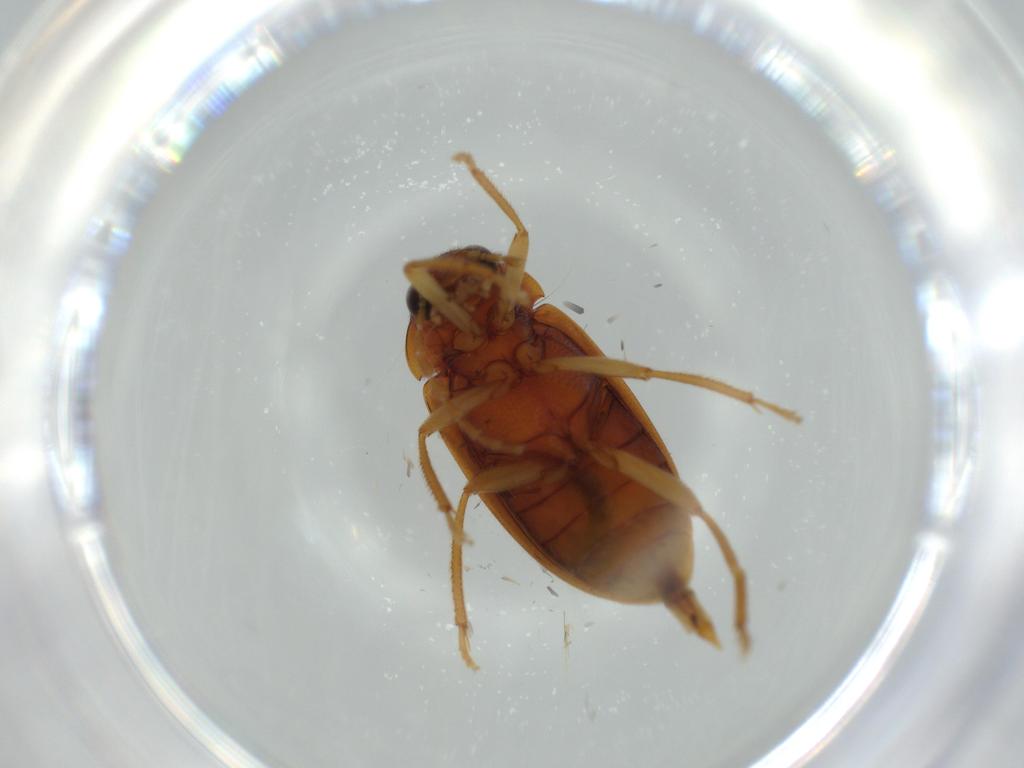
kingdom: Animalia
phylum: Arthropoda
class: Insecta
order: Coleoptera
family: Ptilodactylidae
